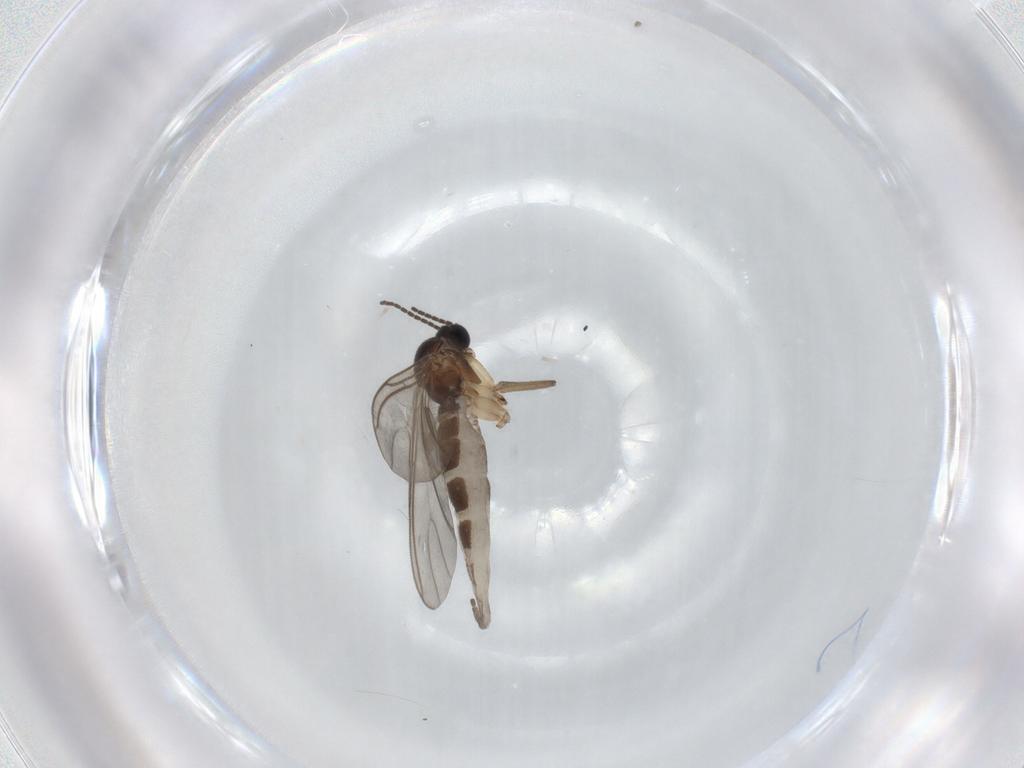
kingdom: Animalia
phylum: Arthropoda
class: Insecta
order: Diptera
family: Sciaridae
